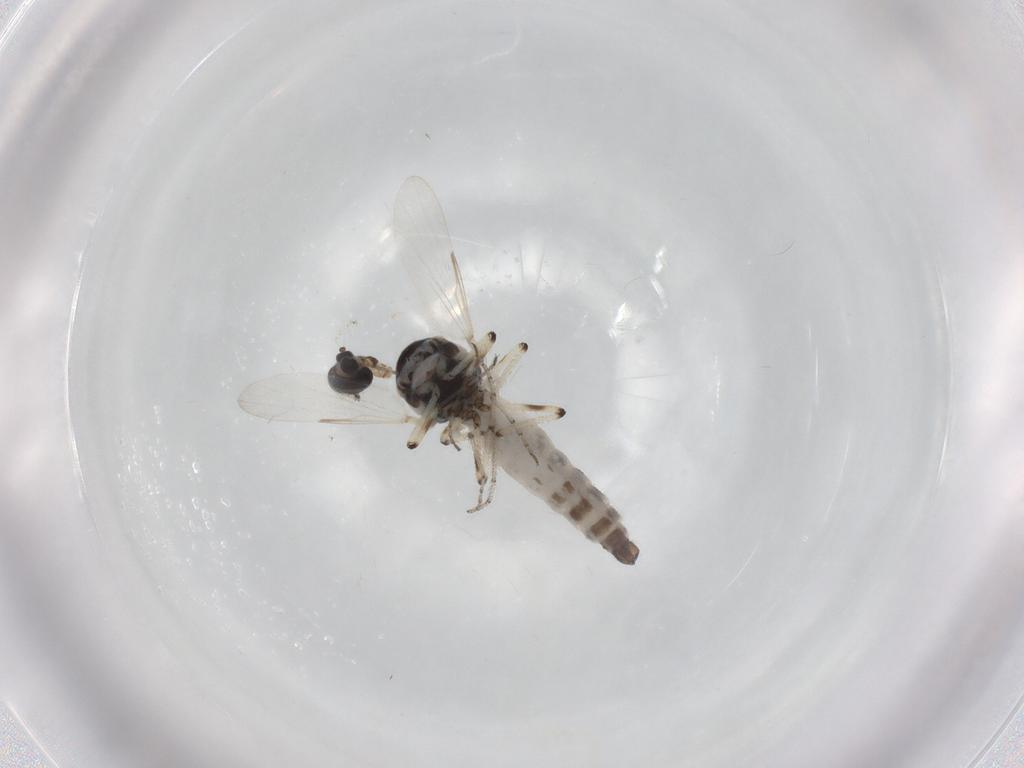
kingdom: Animalia
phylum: Arthropoda
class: Insecta
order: Diptera
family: Ceratopogonidae
